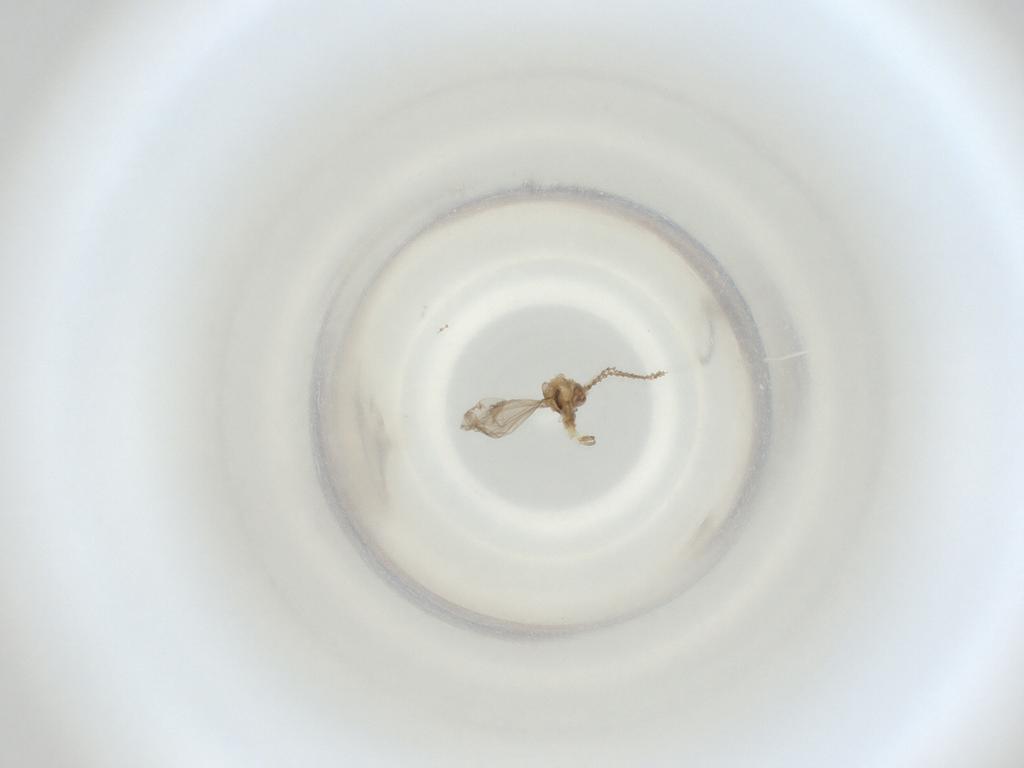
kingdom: Animalia
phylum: Arthropoda
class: Insecta
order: Diptera
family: Cecidomyiidae
